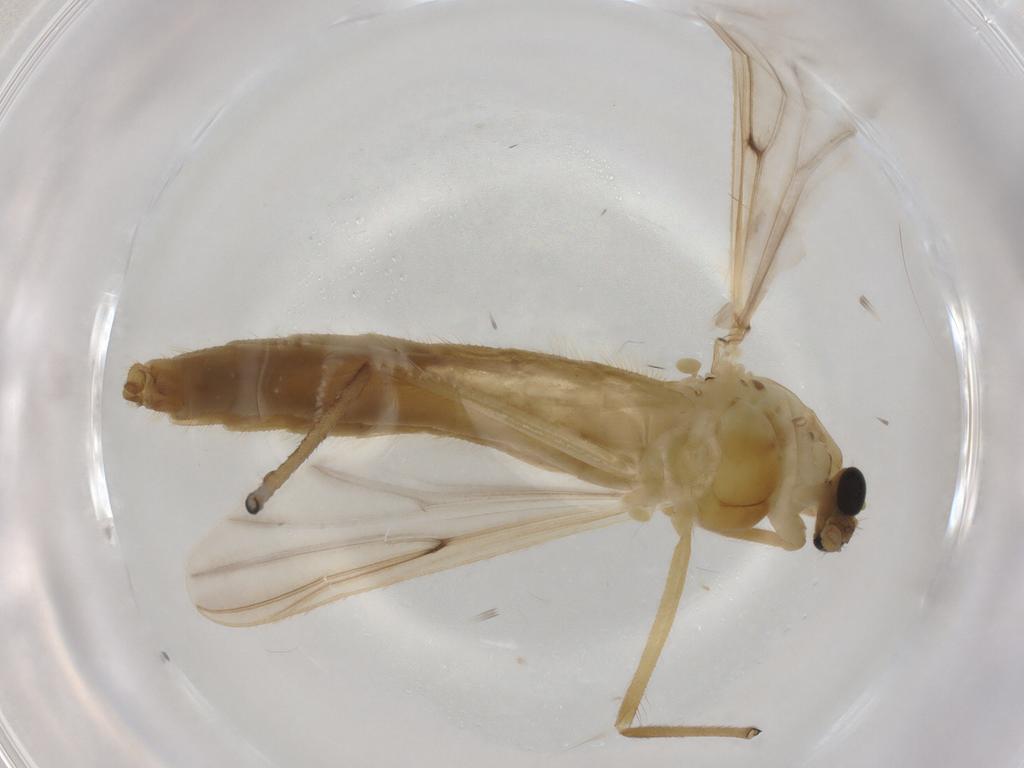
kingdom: Animalia
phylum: Arthropoda
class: Insecta
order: Diptera
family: Chironomidae
